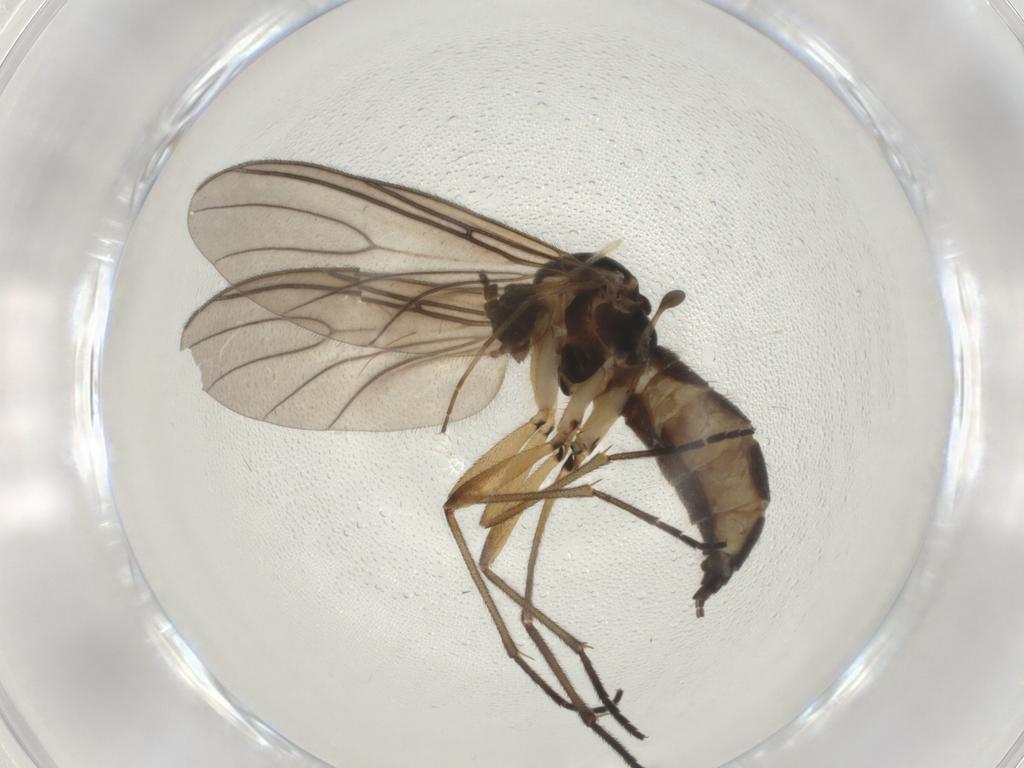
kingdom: Animalia
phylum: Arthropoda
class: Insecta
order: Diptera
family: Sciaridae
